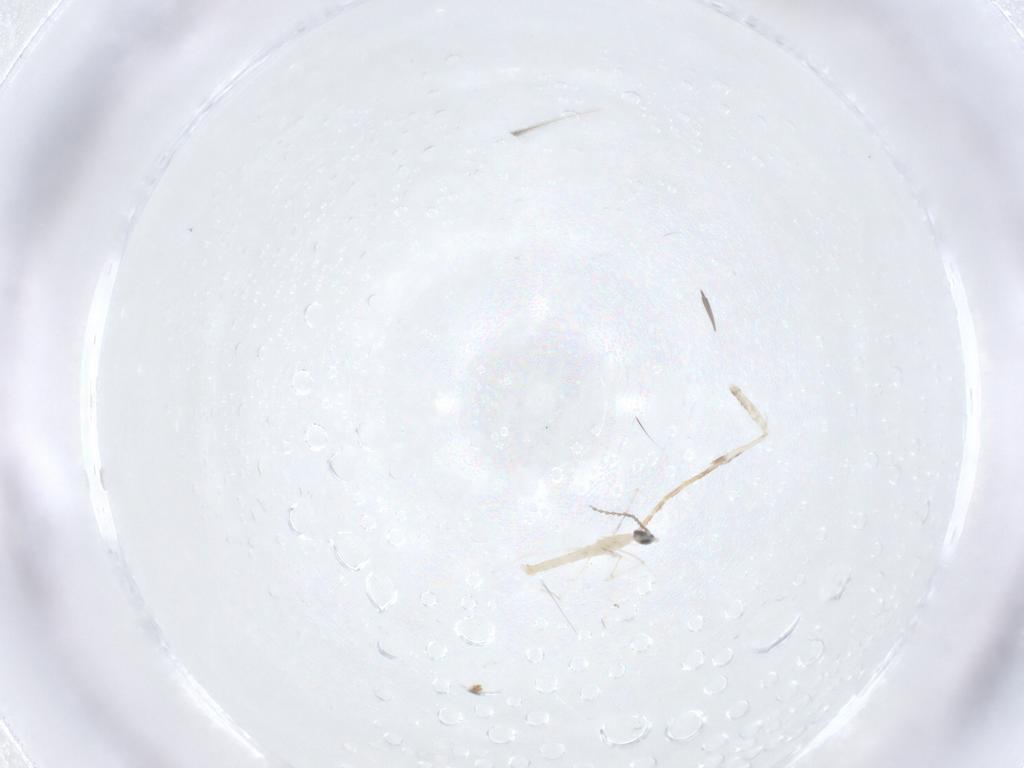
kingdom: Animalia
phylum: Arthropoda
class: Insecta
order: Diptera
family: Cecidomyiidae
